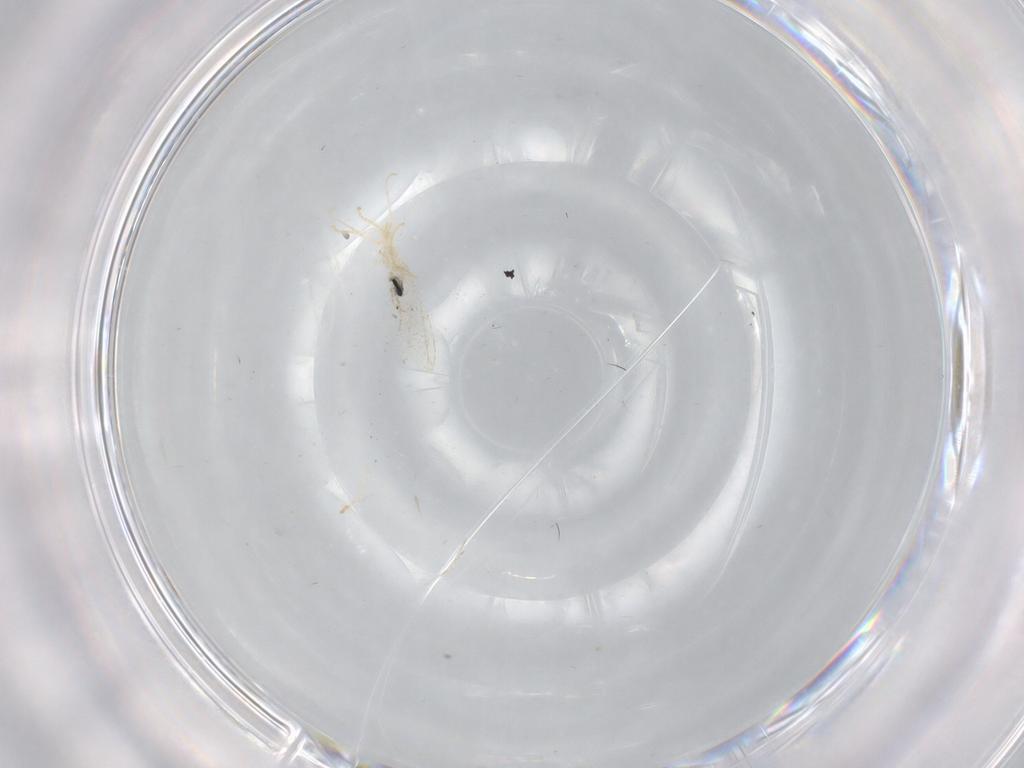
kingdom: Animalia
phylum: Arthropoda
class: Insecta
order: Diptera
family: Cecidomyiidae
